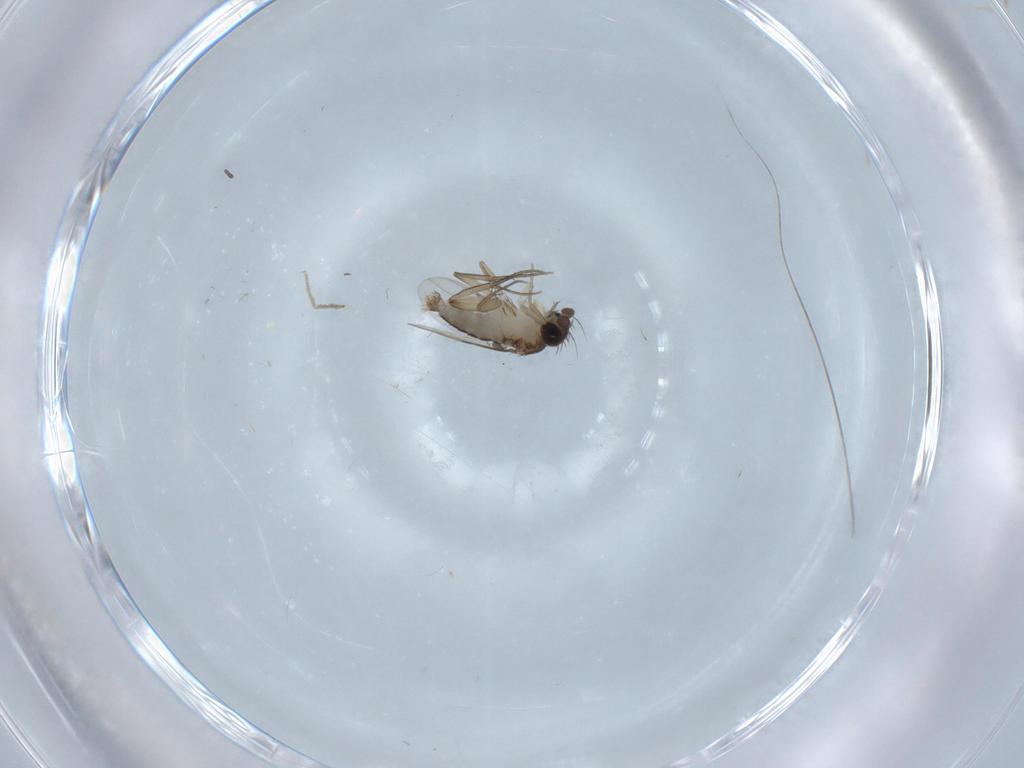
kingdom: Animalia
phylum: Arthropoda
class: Insecta
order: Diptera
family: Phoridae
